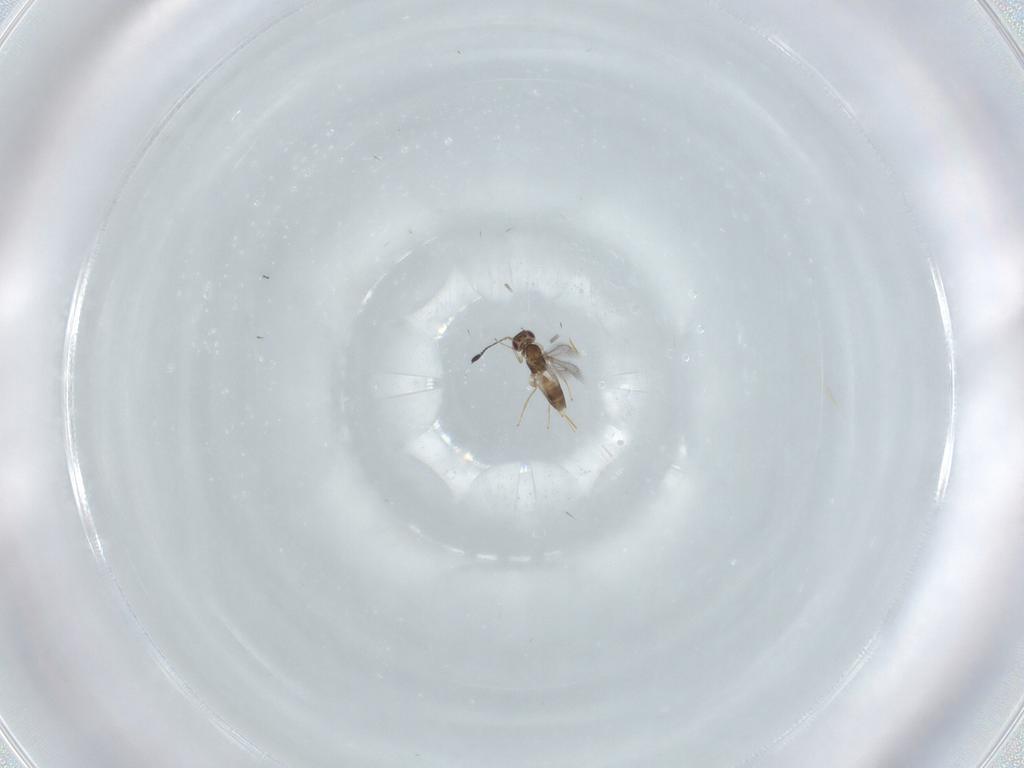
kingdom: Animalia
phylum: Arthropoda
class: Insecta
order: Hymenoptera
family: Mymaridae
